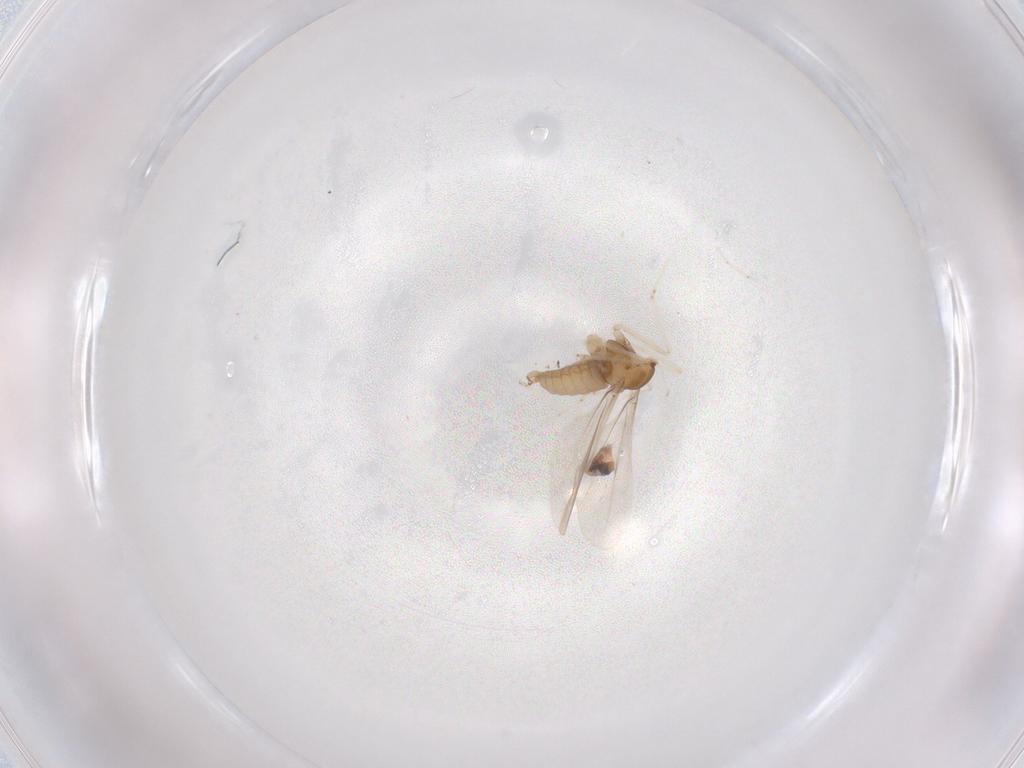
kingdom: Animalia
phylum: Arthropoda
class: Insecta
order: Diptera
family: Cecidomyiidae
